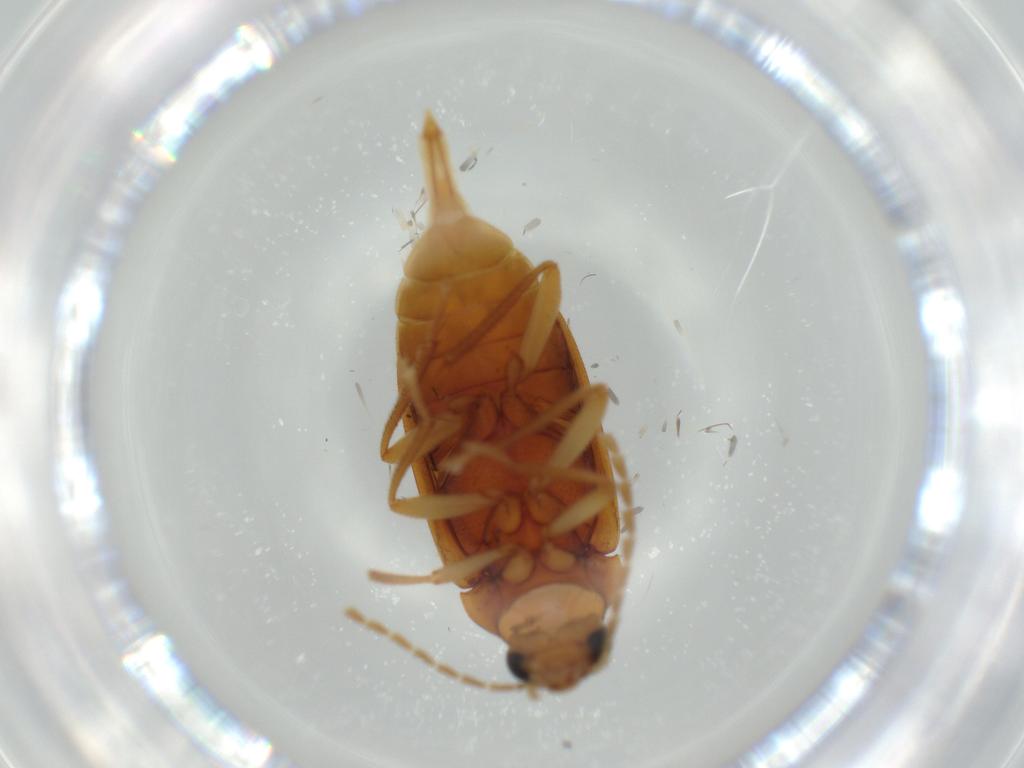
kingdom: Animalia
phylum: Arthropoda
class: Insecta
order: Coleoptera
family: Ptilodactylidae
